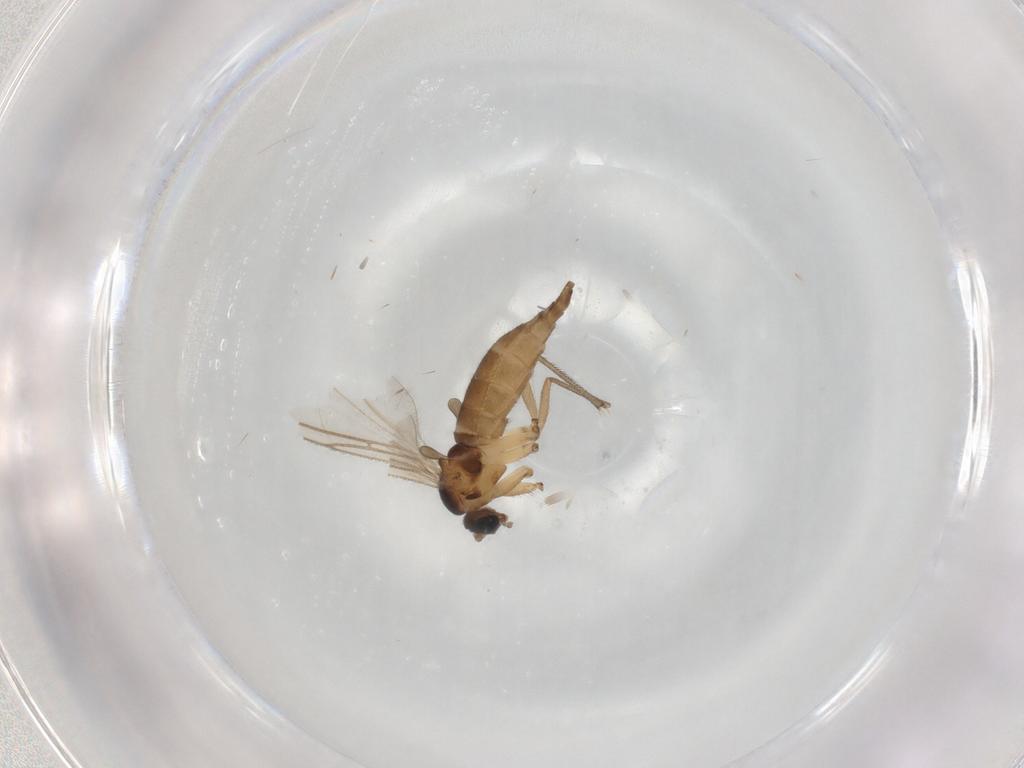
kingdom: Animalia
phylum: Arthropoda
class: Insecta
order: Diptera
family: Sciaridae
